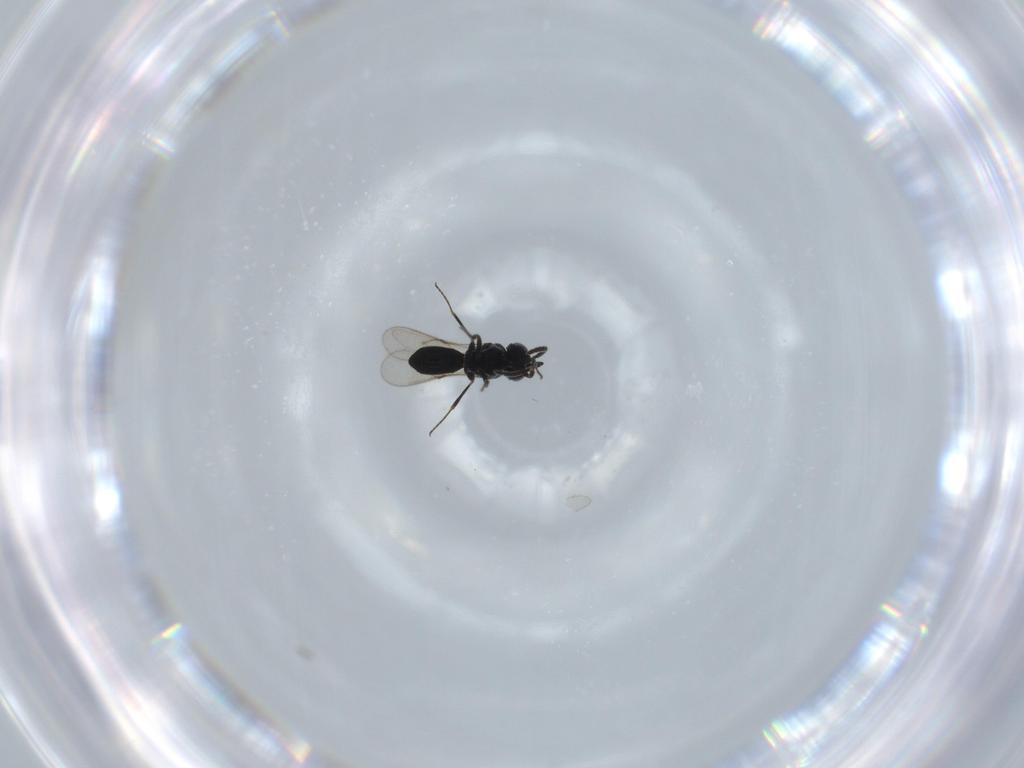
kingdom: Animalia
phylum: Arthropoda
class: Insecta
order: Hymenoptera
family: Scelionidae
